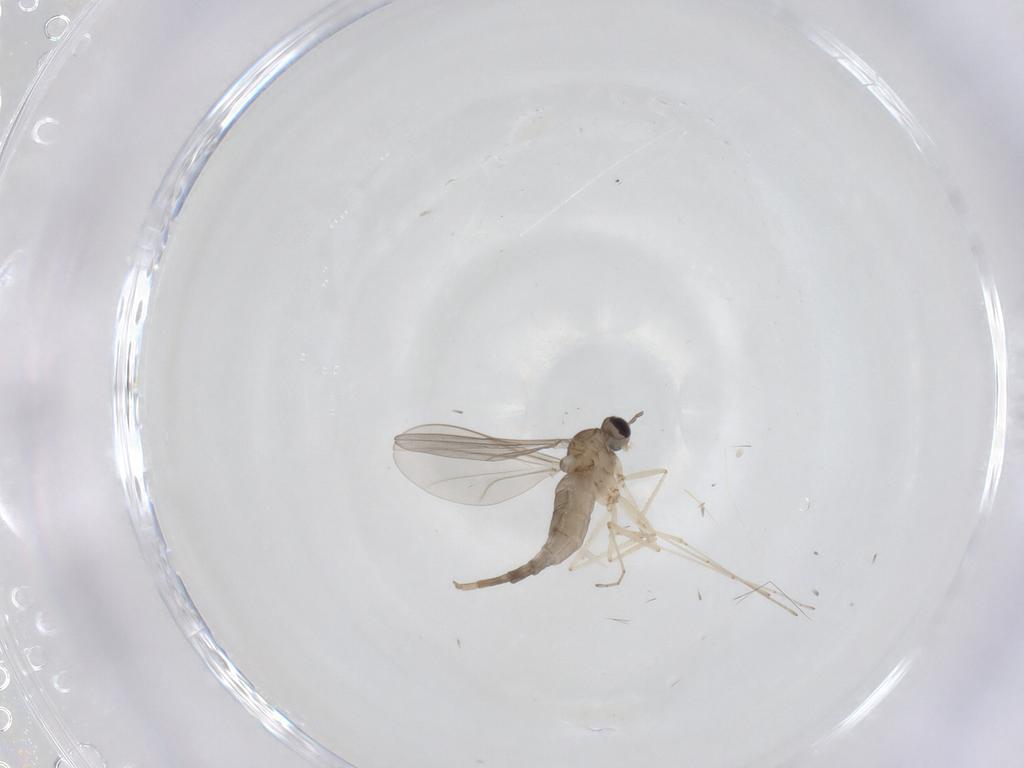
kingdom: Animalia
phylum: Arthropoda
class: Insecta
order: Diptera
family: Cecidomyiidae
